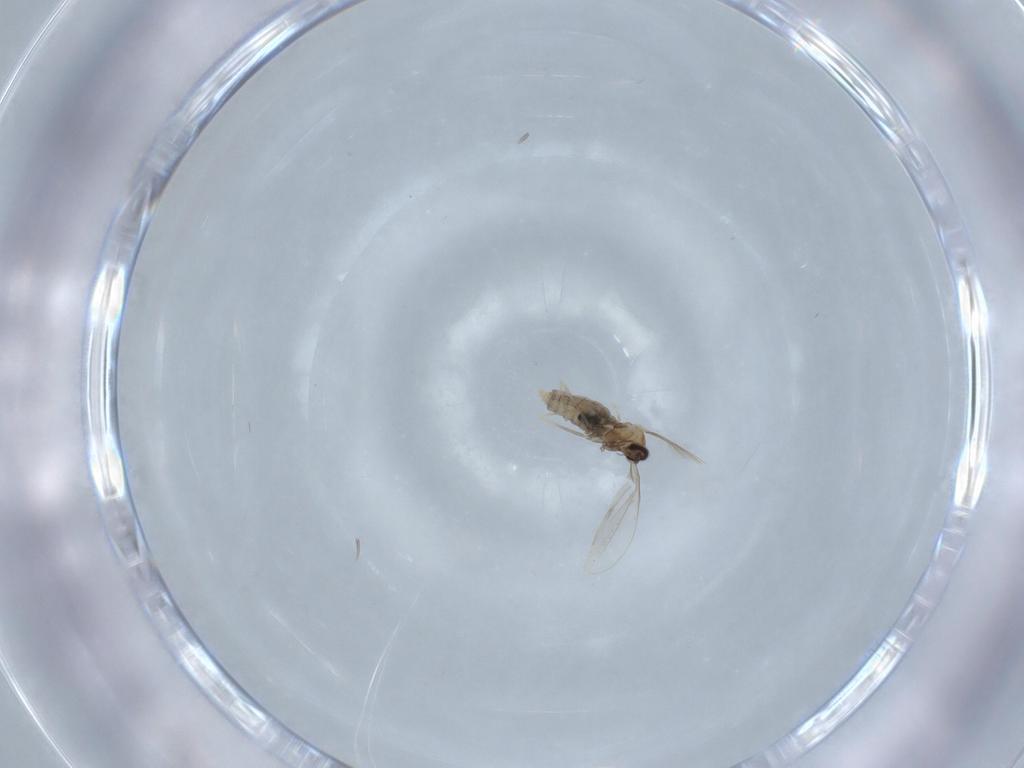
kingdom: Animalia
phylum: Arthropoda
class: Insecta
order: Diptera
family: Cecidomyiidae
